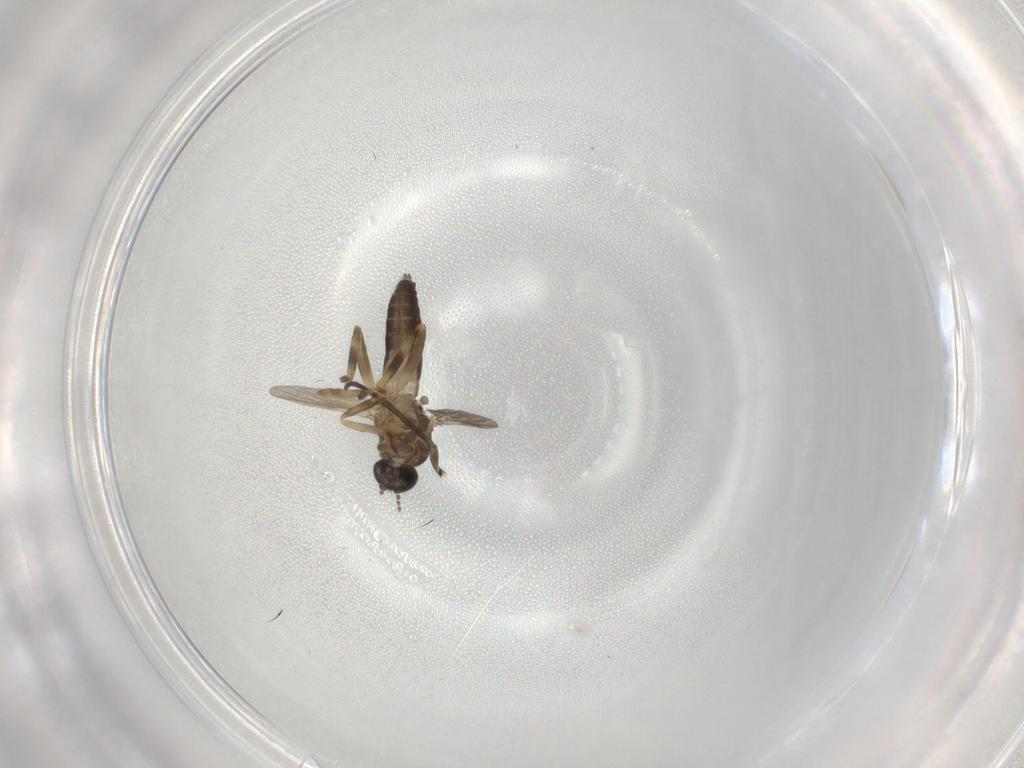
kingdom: Animalia
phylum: Arthropoda
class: Insecta
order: Diptera
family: Ceratopogonidae
